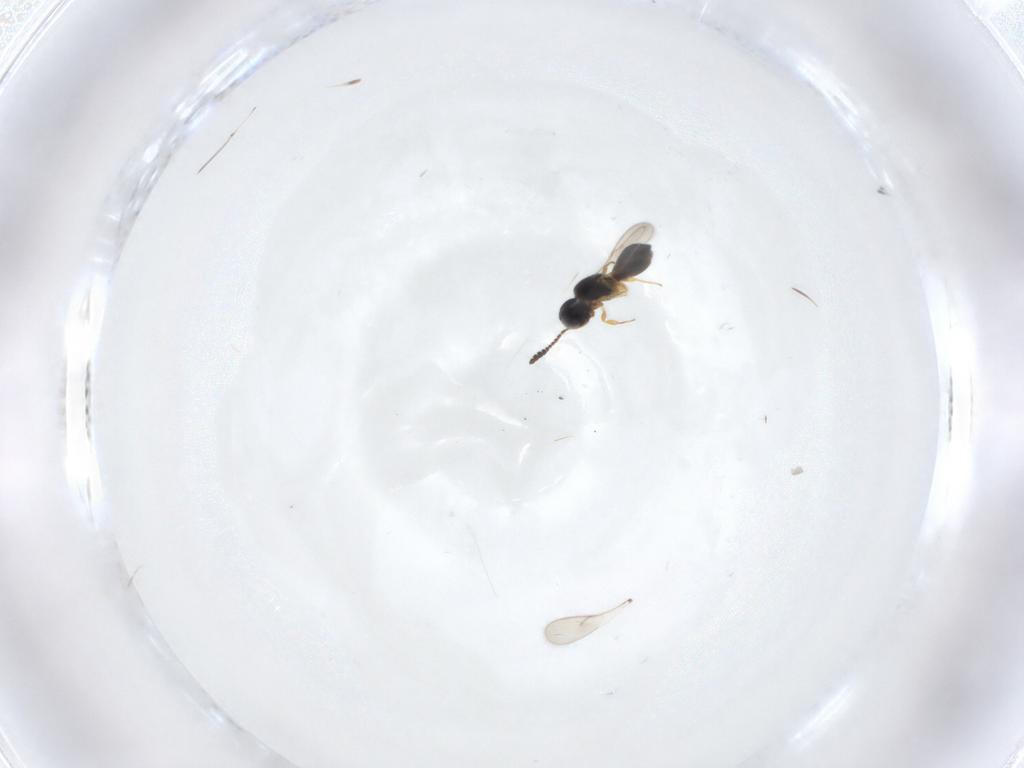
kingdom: Animalia
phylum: Arthropoda
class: Insecta
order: Hymenoptera
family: Scelionidae
